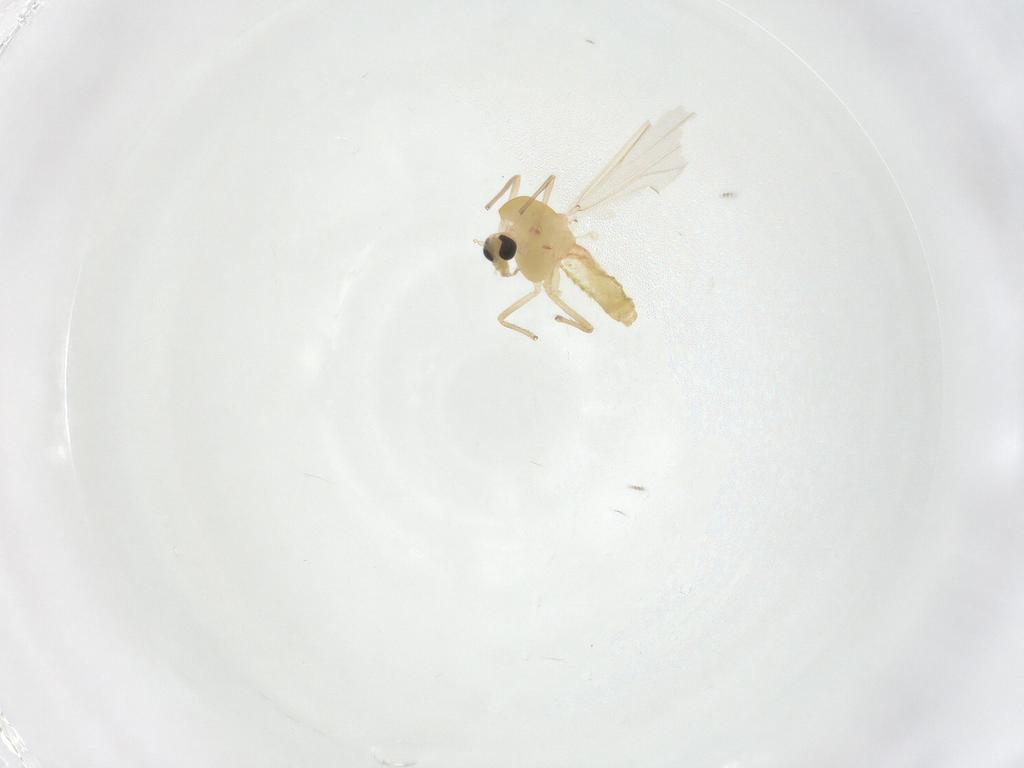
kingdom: Animalia
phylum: Arthropoda
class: Insecta
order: Diptera
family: Chironomidae
